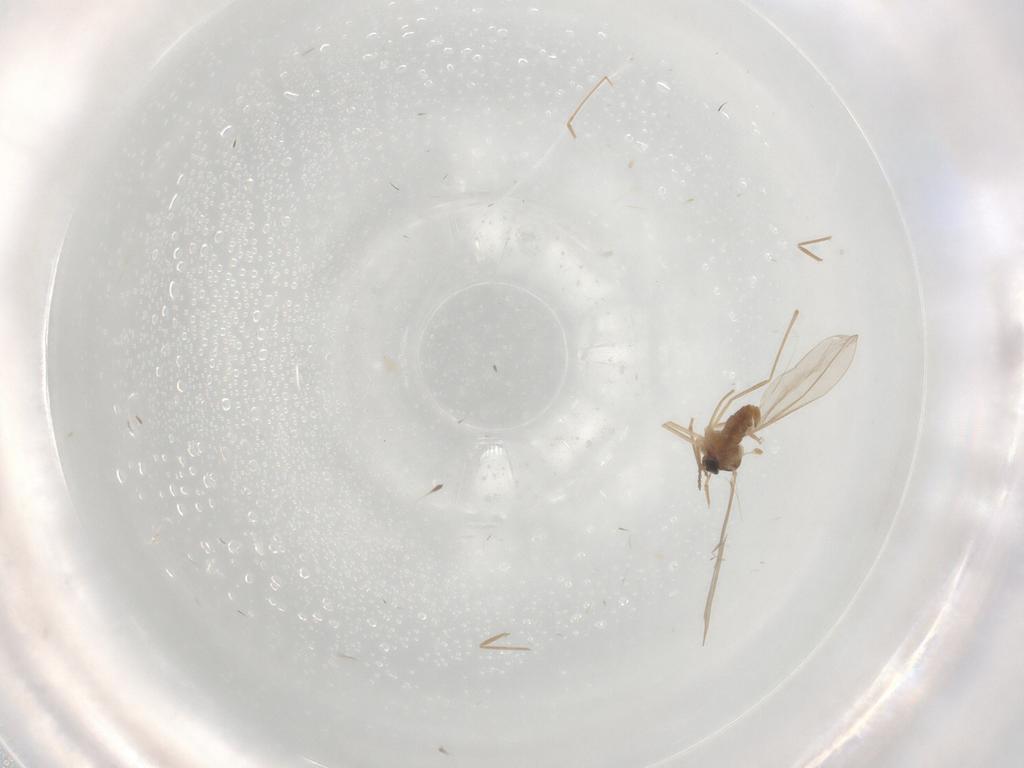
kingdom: Animalia
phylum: Arthropoda
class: Insecta
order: Diptera
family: Cecidomyiidae
